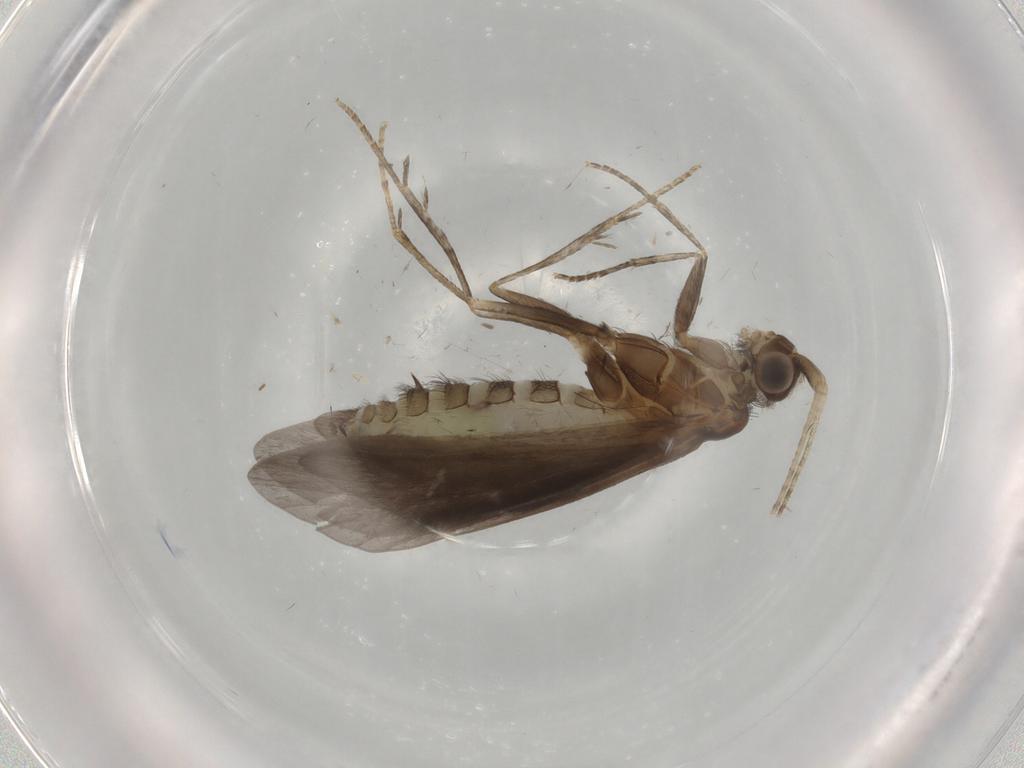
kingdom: Animalia
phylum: Arthropoda
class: Insecta
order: Trichoptera
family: Helicopsychidae
